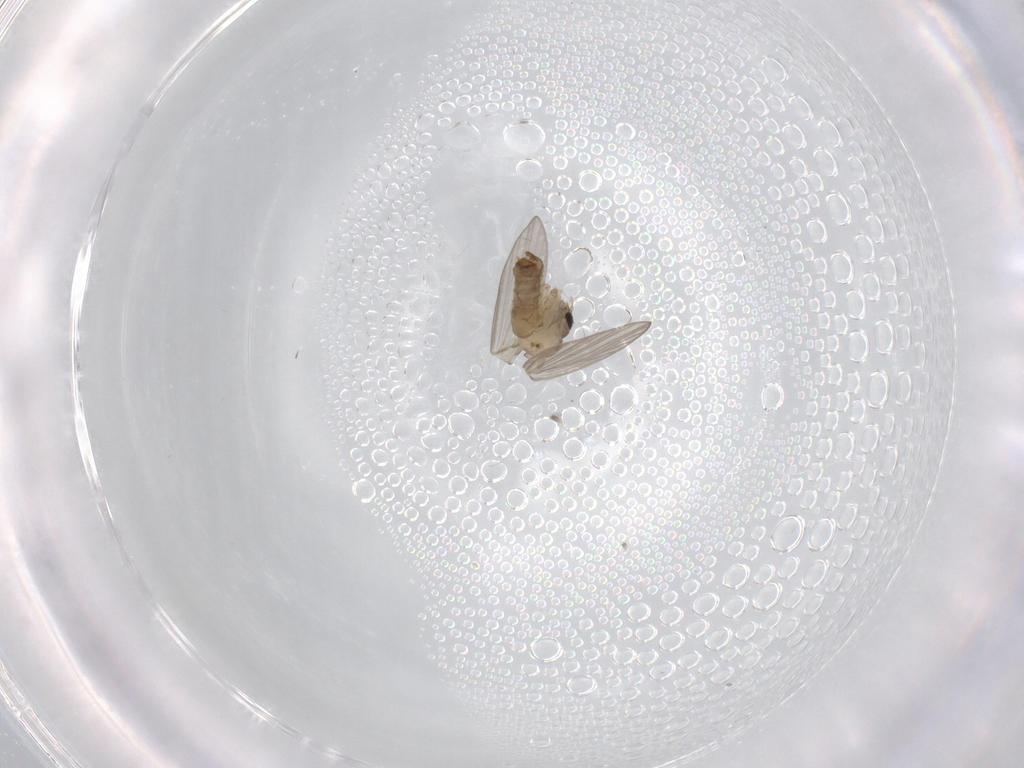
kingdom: Animalia
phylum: Arthropoda
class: Insecta
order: Diptera
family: Psychodidae
